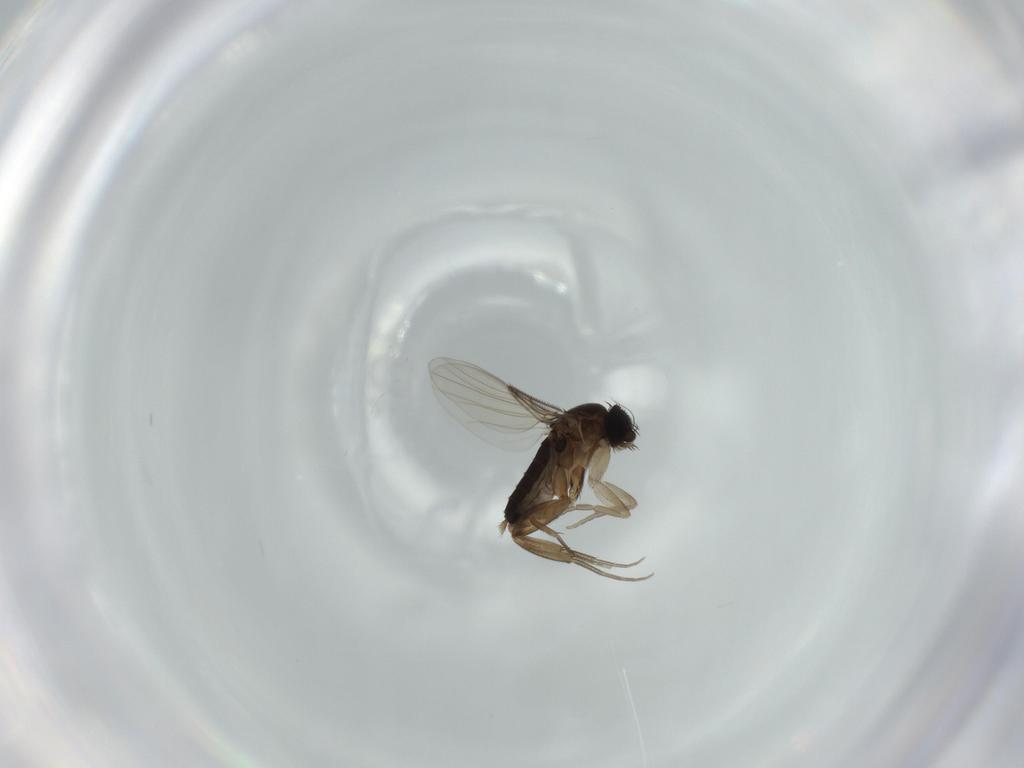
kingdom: Animalia
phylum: Arthropoda
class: Insecta
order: Diptera
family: Phoridae
